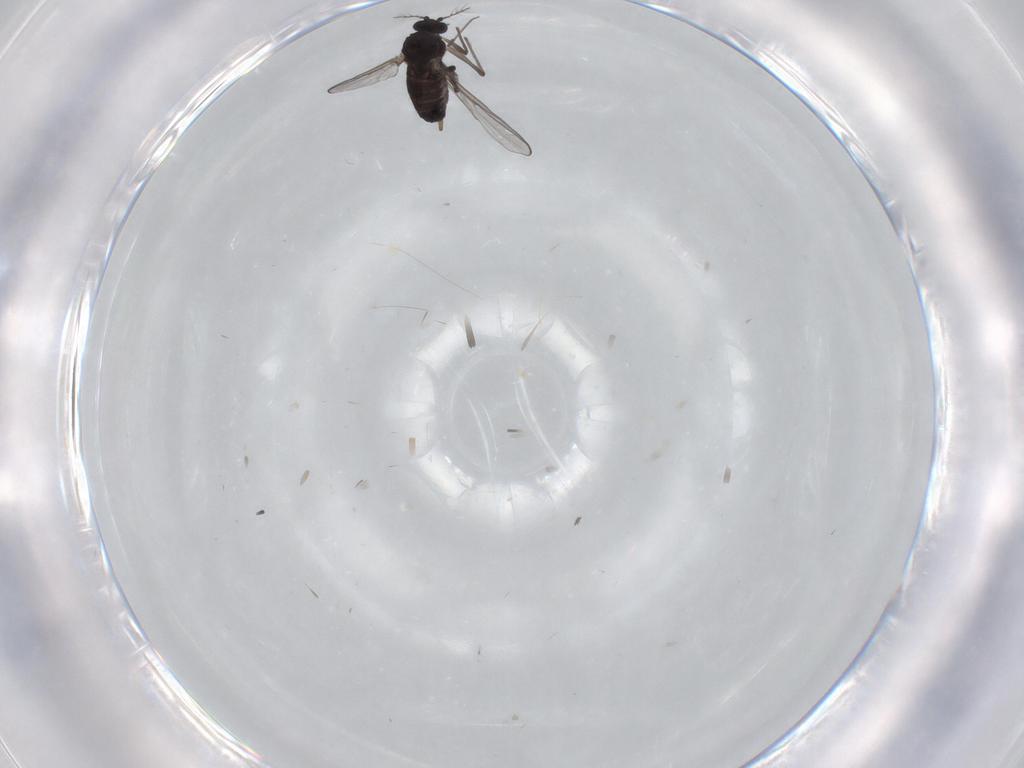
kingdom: Animalia
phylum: Arthropoda
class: Insecta
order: Diptera
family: Chironomidae
